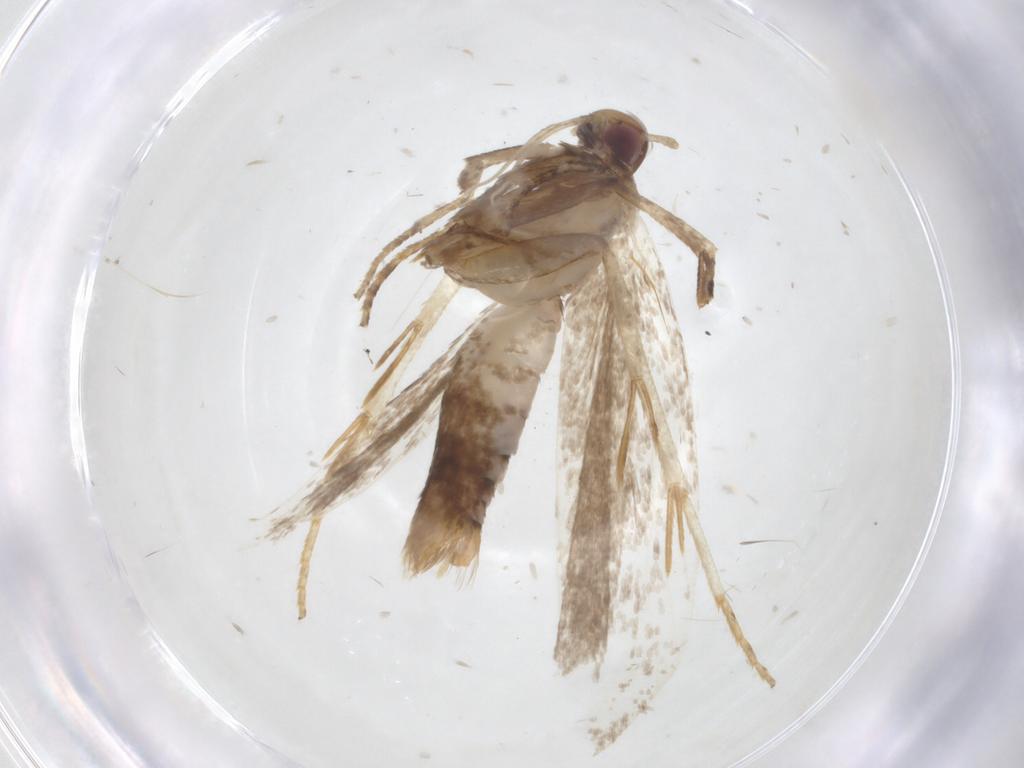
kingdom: Animalia
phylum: Arthropoda
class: Insecta
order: Lepidoptera
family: Gelechiidae
